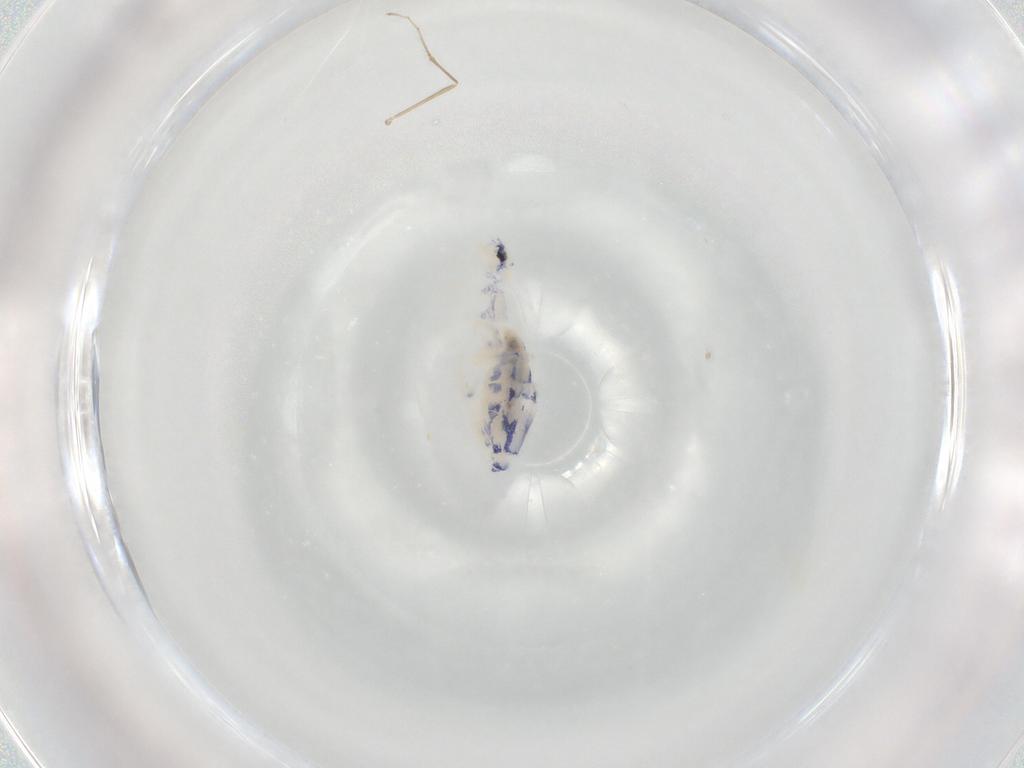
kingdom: Animalia
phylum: Arthropoda
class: Collembola
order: Entomobryomorpha
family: Entomobryidae
